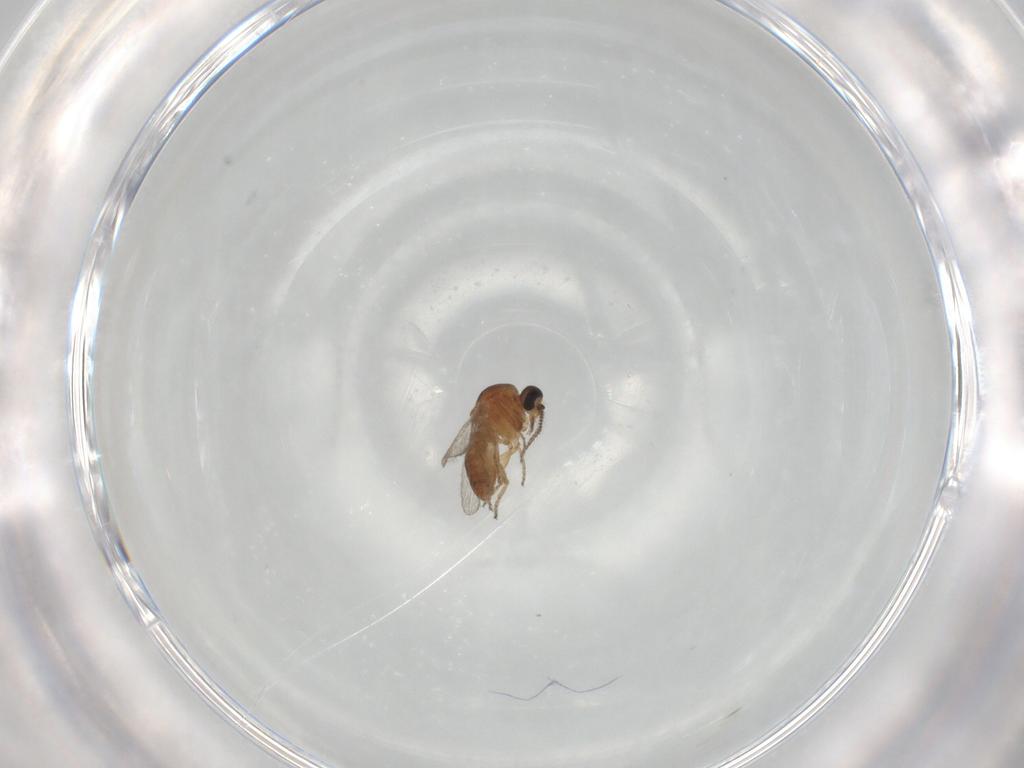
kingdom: Animalia
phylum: Arthropoda
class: Insecta
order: Diptera
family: Ceratopogonidae
